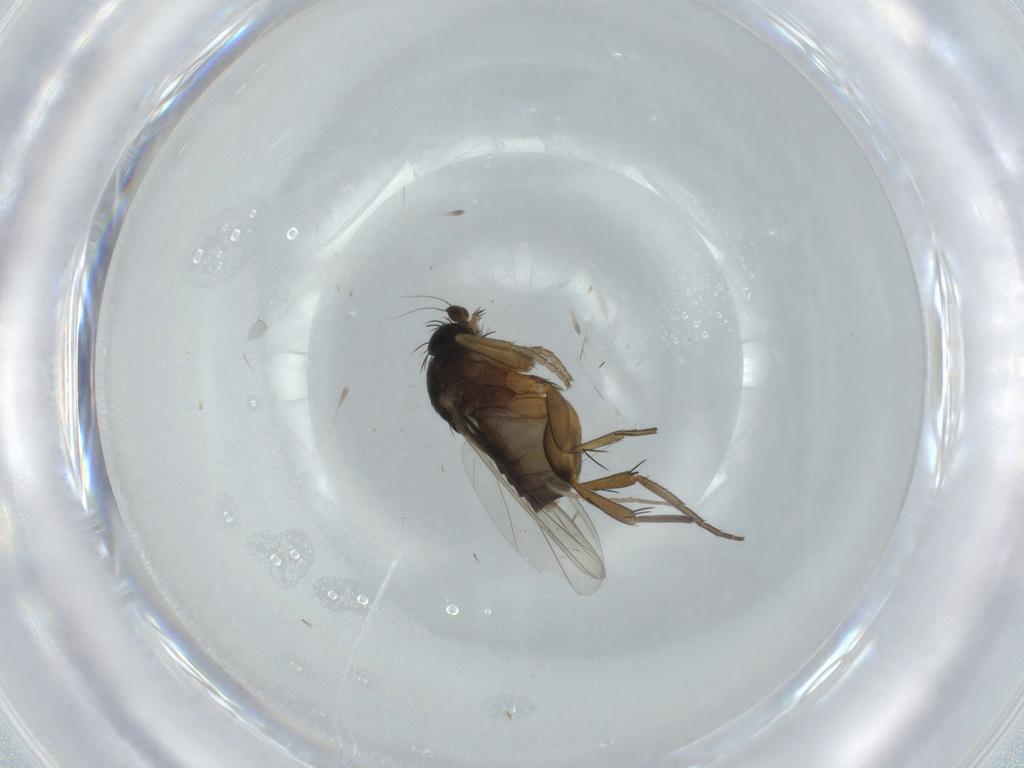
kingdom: Animalia
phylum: Arthropoda
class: Insecta
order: Diptera
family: Phoridae
